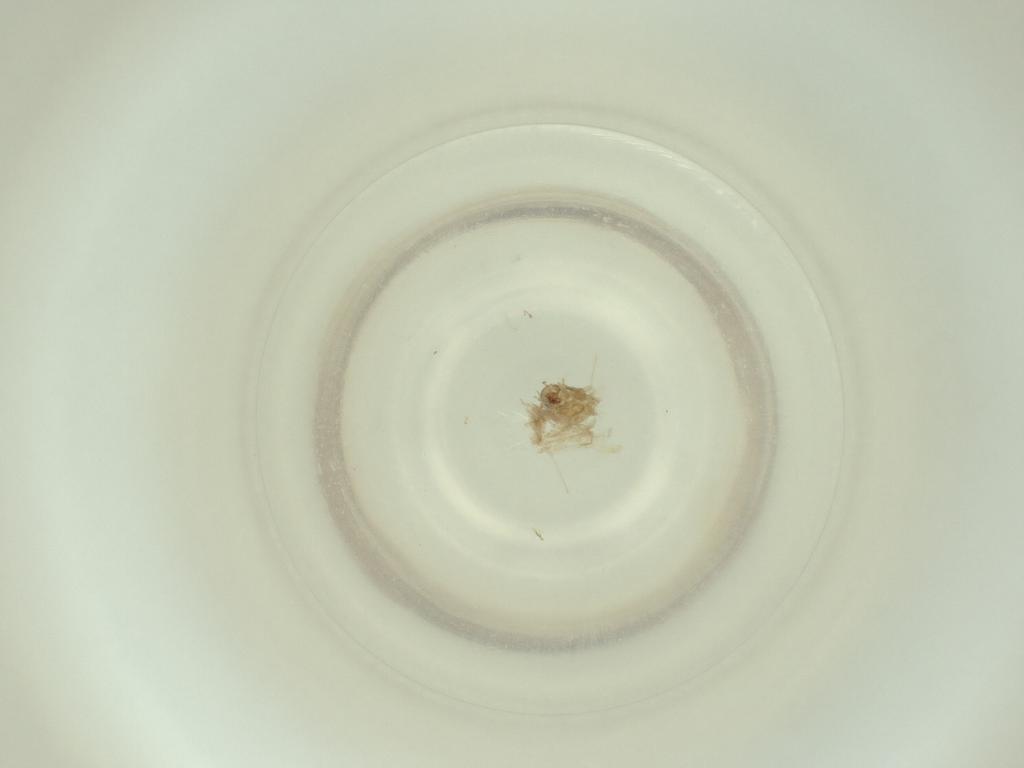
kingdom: Animalia
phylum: Arthropoda
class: Insecta
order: Diptera
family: Cecidomyiidae
